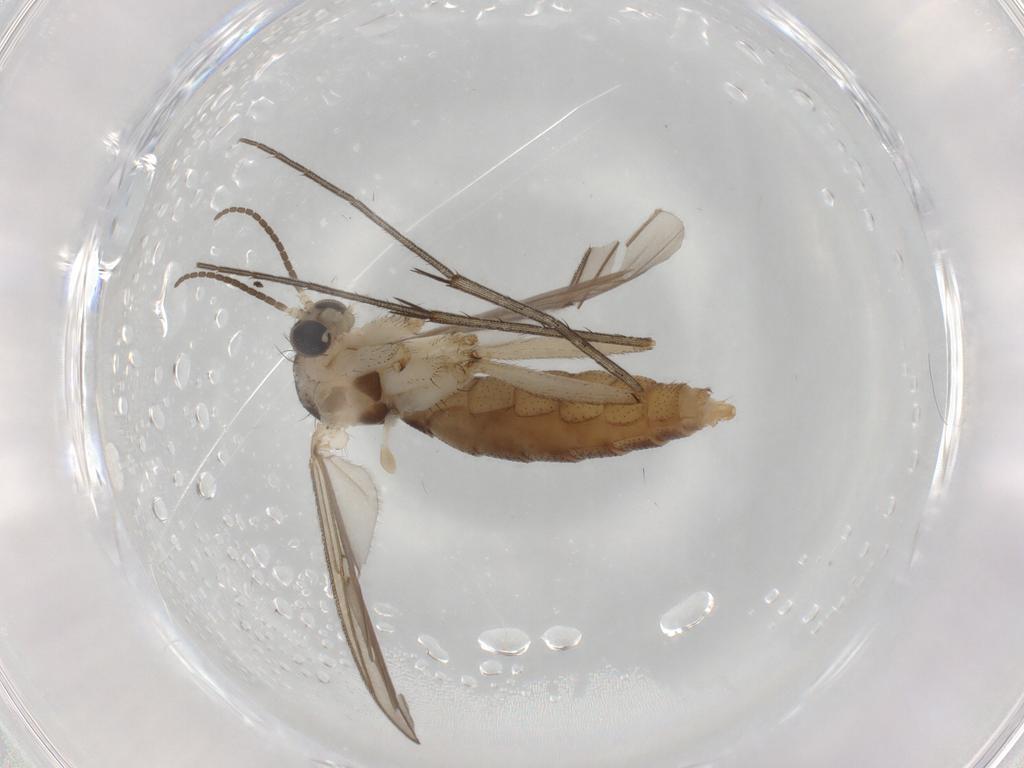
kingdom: Animalia
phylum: Arthropoda
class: Insecta
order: Diptera
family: Mycetophilidae
